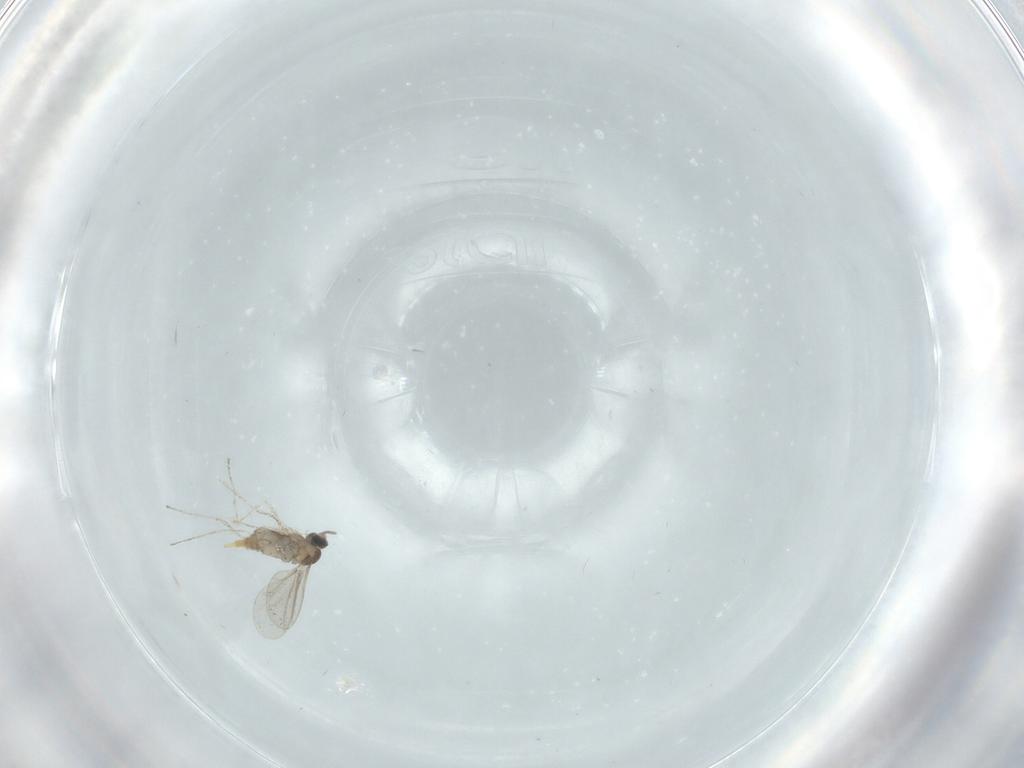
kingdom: Animalia
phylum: Arthropoda
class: Insecta
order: Diptera
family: Cecidomyiidae
